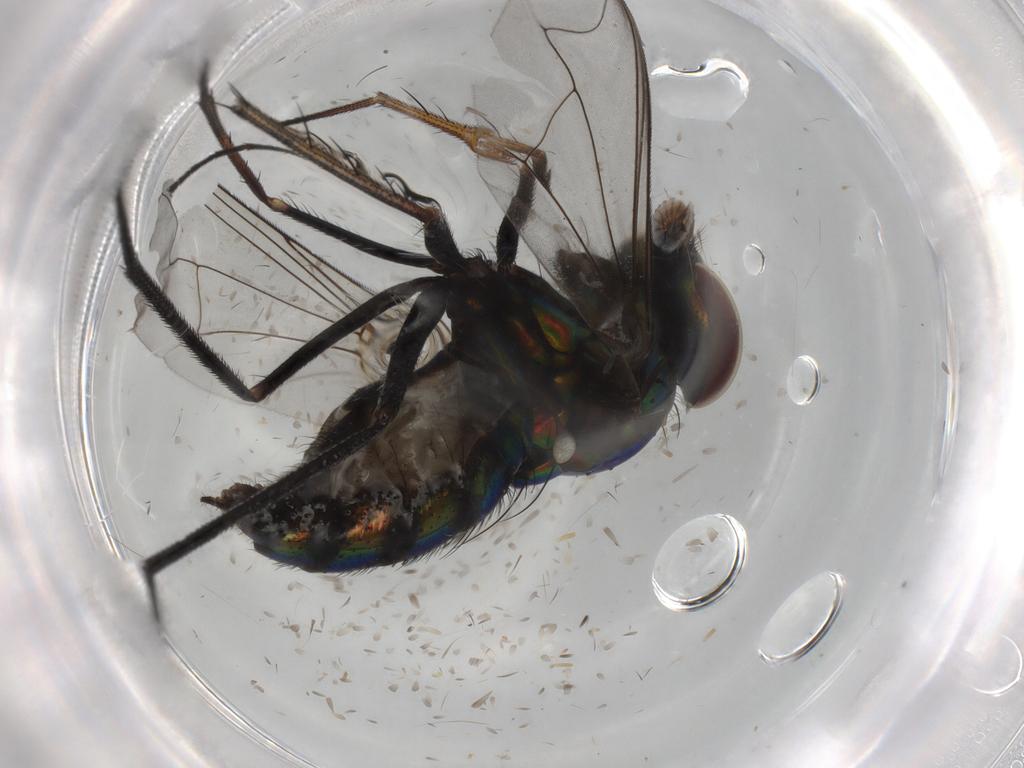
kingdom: Animalia
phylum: Arthropoda
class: Insecta
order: Diptera
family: Dolichopodidae
